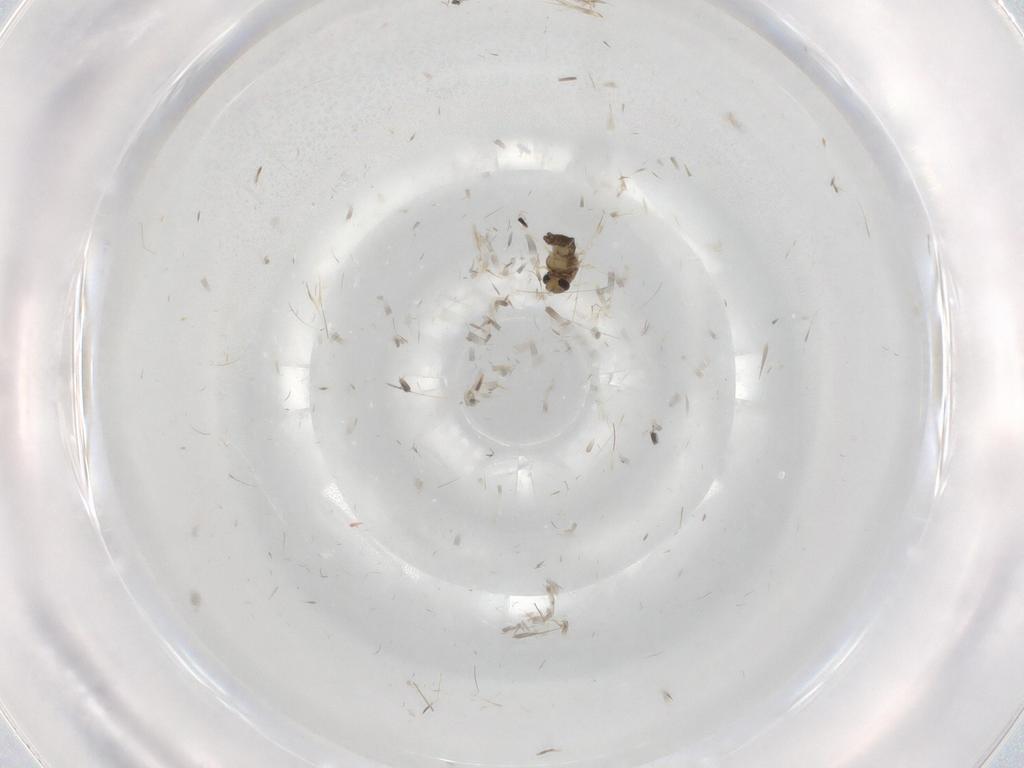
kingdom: Animalia
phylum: Arthropoda
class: Insecta
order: Diptera
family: Chironomidae
